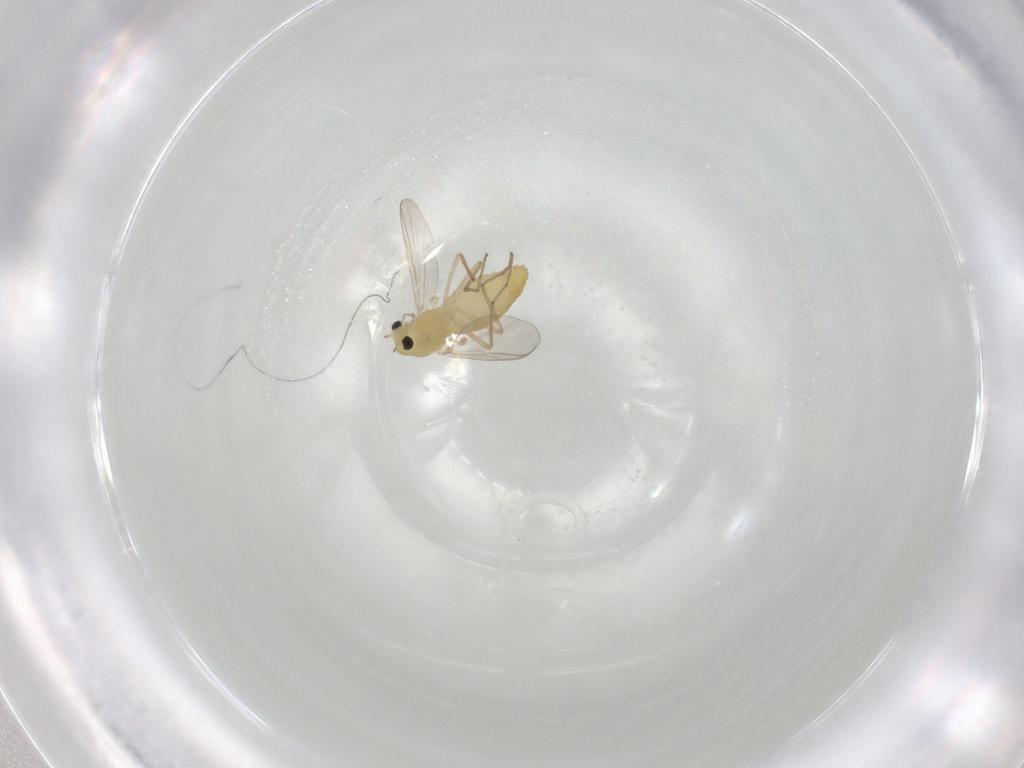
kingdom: Animalia
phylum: Arthropoda
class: Insecta
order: Diptera
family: Chironomidae
